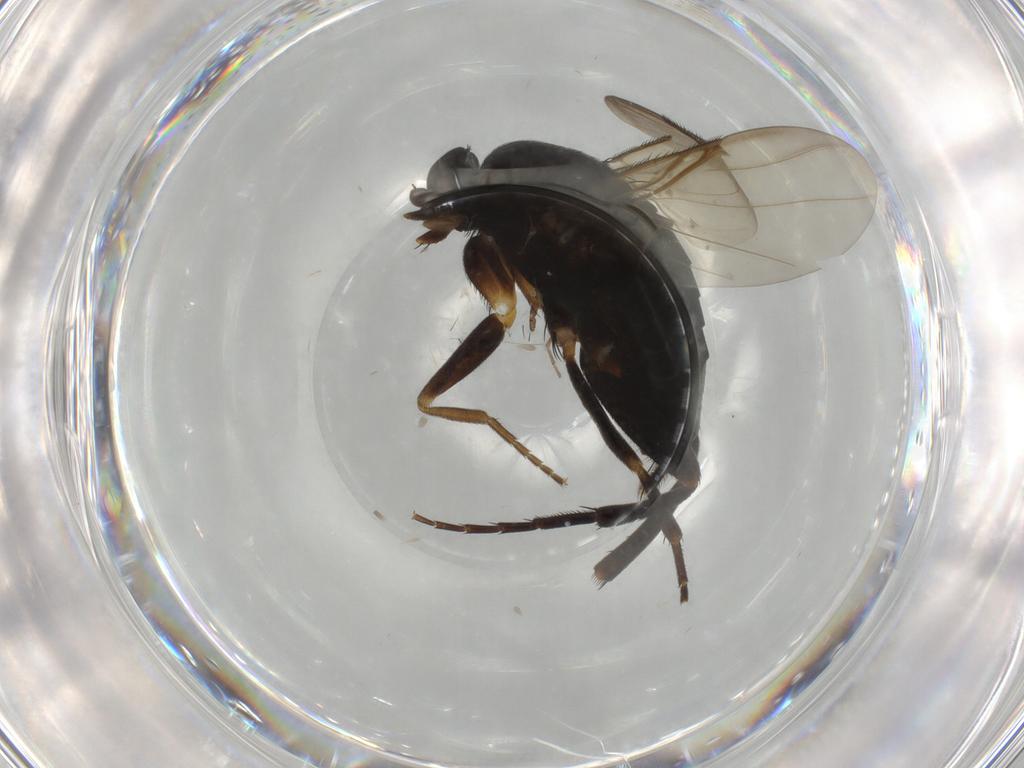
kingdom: Animalia
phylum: Arthropoda
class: Insecta
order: Diptera
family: Phoridae
